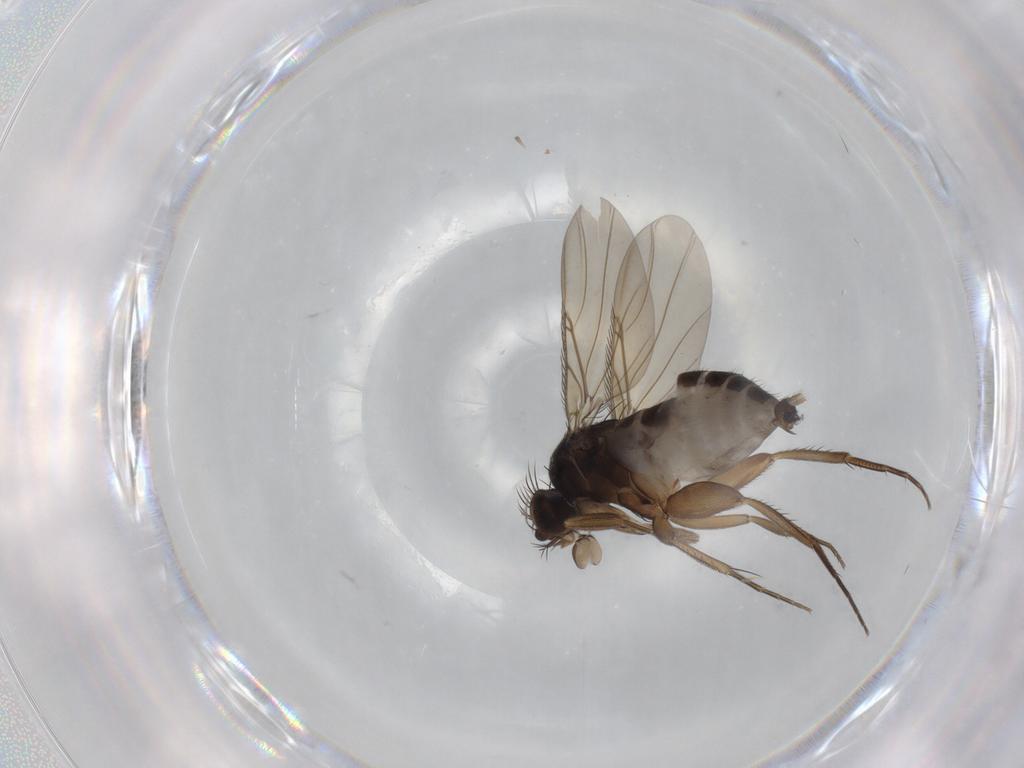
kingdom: Animalia
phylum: Arthropoda
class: Insecta
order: Diptera
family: Phoridae
